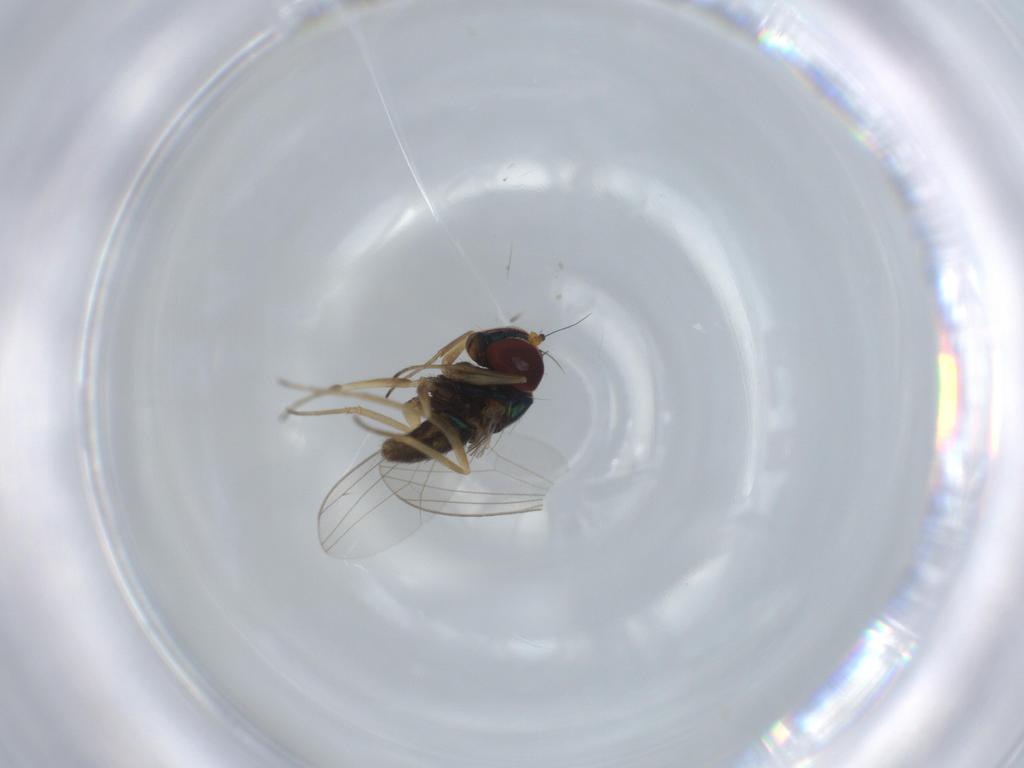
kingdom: Animalia
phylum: Arthropoda
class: Insecta
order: Diptera
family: Dolichopodidae
